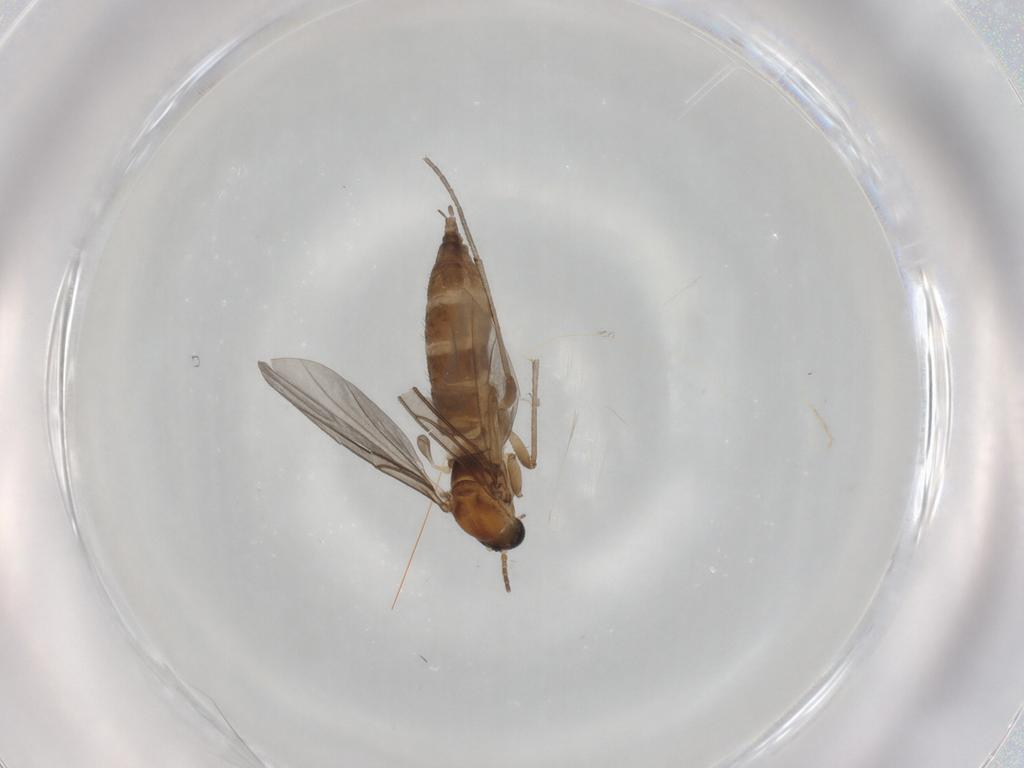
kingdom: Animalia
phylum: Arthropoda
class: Insecta
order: Diptera
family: Sciaridae
